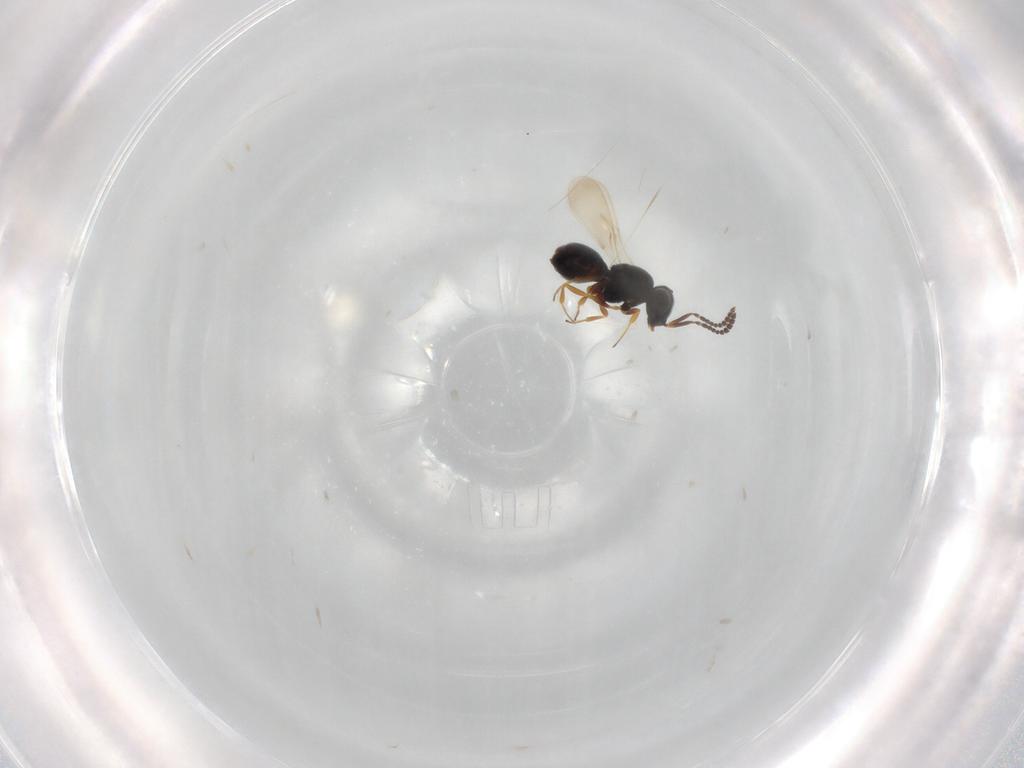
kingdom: Animalia
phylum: Arthropoda
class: Insecta
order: Hymenoptera
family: Scelionidae
